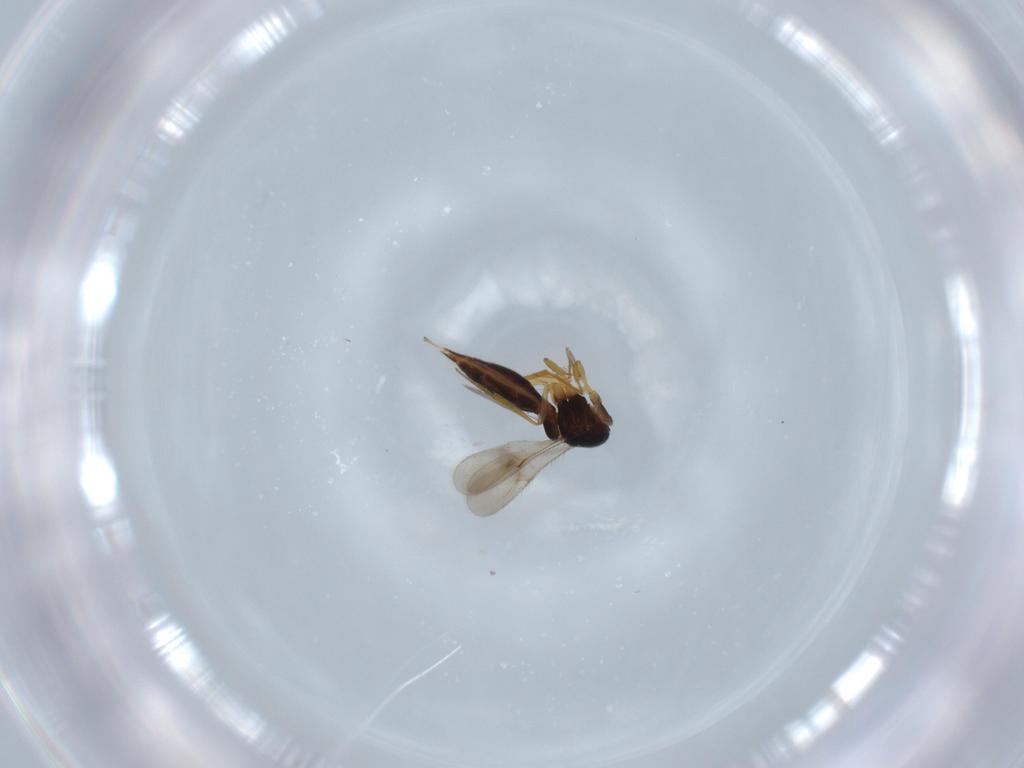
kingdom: Animalia
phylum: Arthropoda
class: Insecta
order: Hymenoptera
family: Scelionidae
